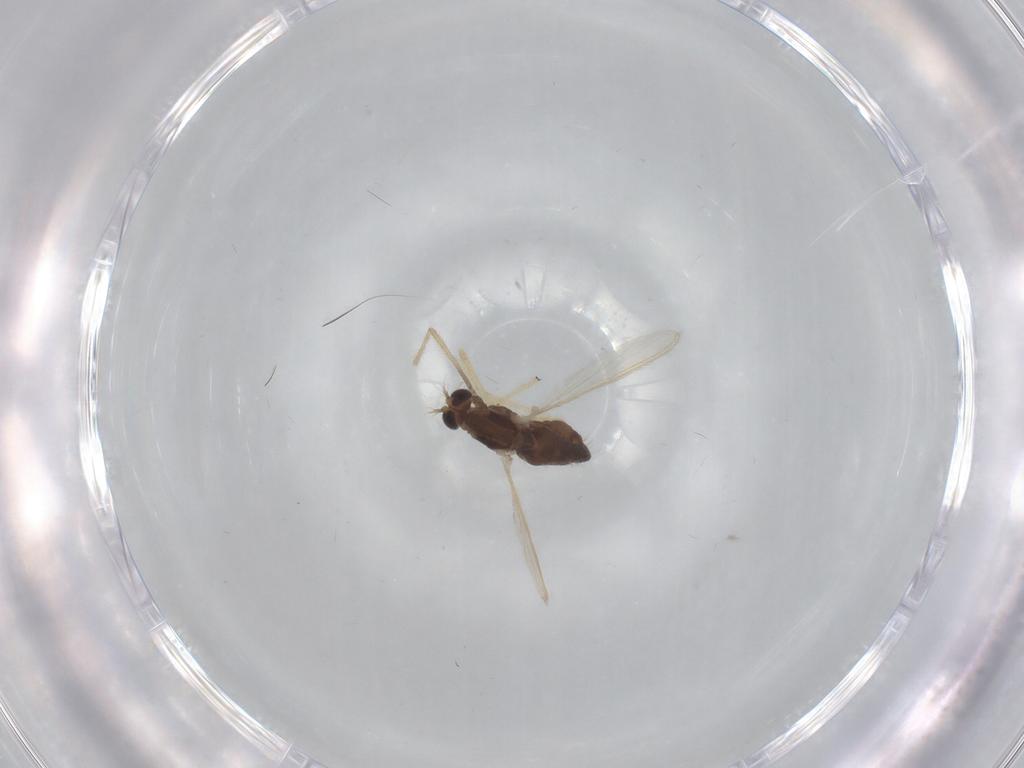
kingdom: Animalia
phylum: Arthropoda
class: Insecta
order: Diptera
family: Chironomidae
